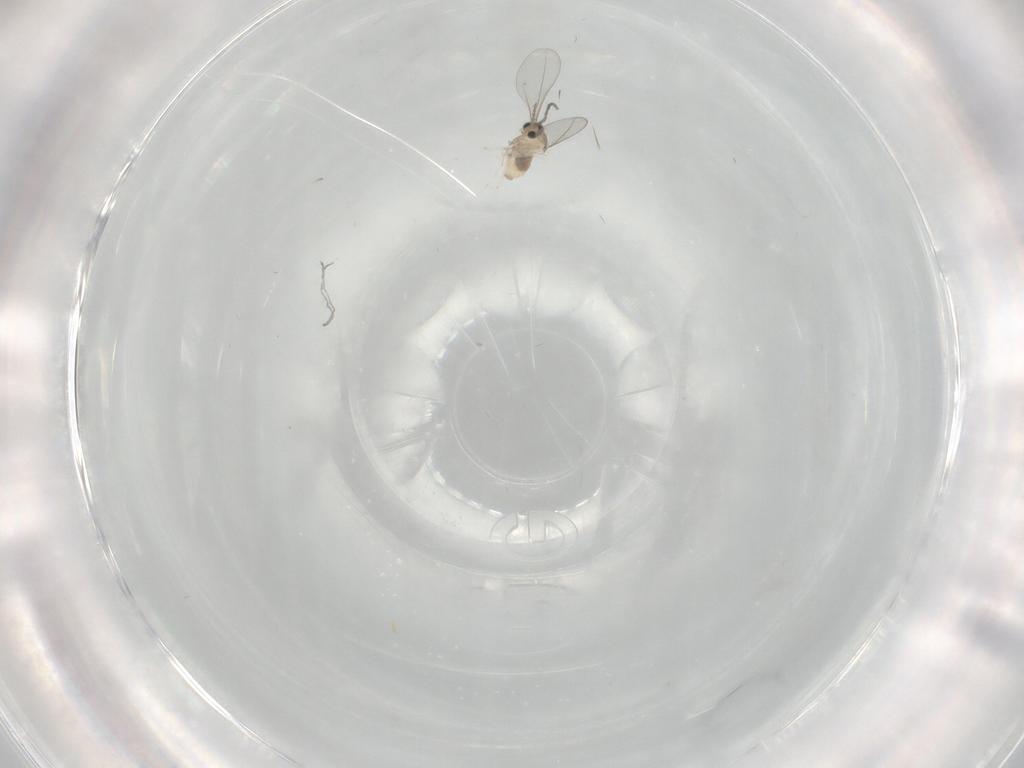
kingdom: Animalia
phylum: Arthropoda
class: Insecta
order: Diptera
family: Cecidomyiidae
